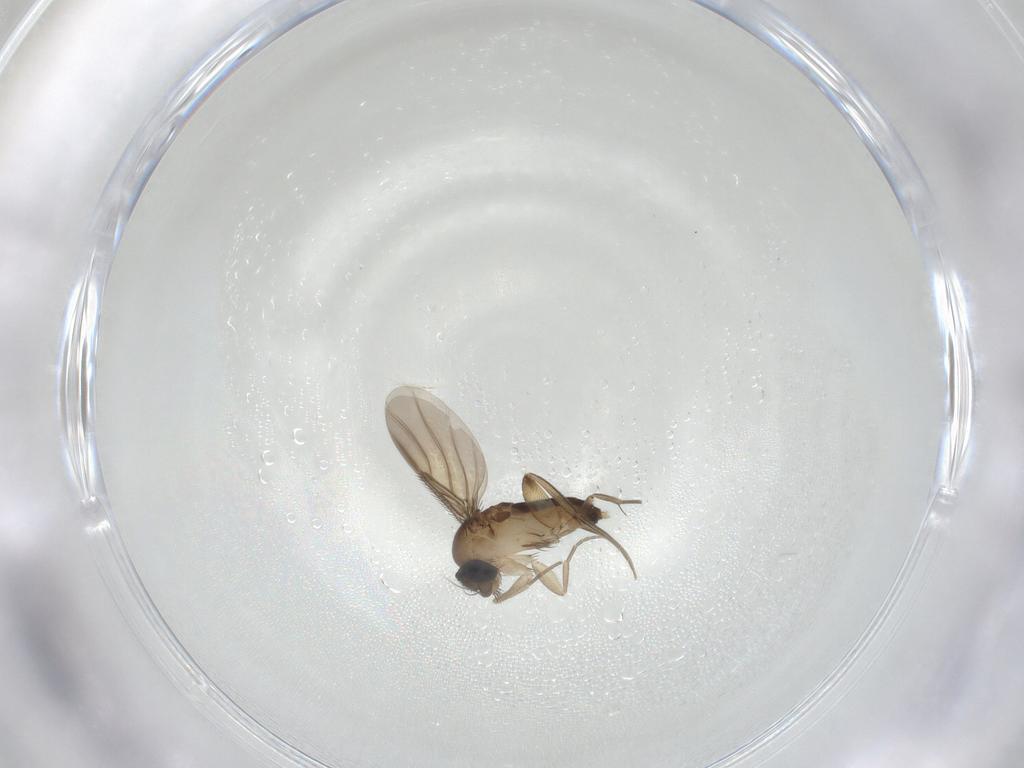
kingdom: Animalia
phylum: Arthropoda
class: Insecta
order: Diptera
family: Phoridae
